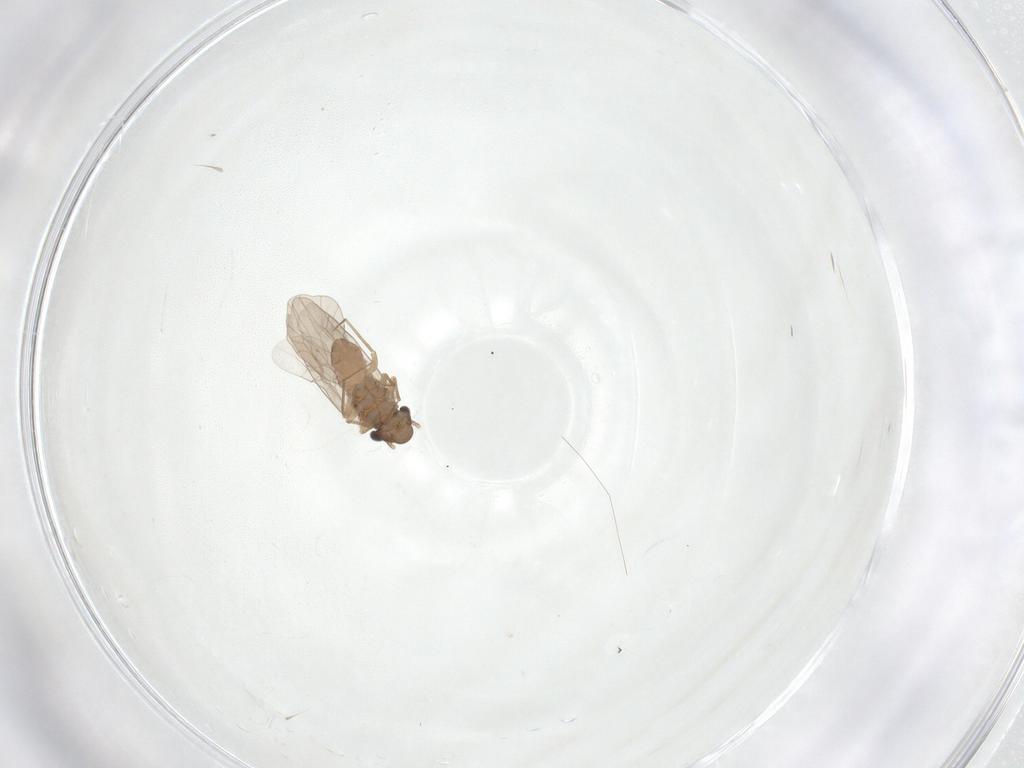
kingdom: Animalia
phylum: Arthropoda
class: Insecta
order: Psocodea
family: Lepidopsocidae
